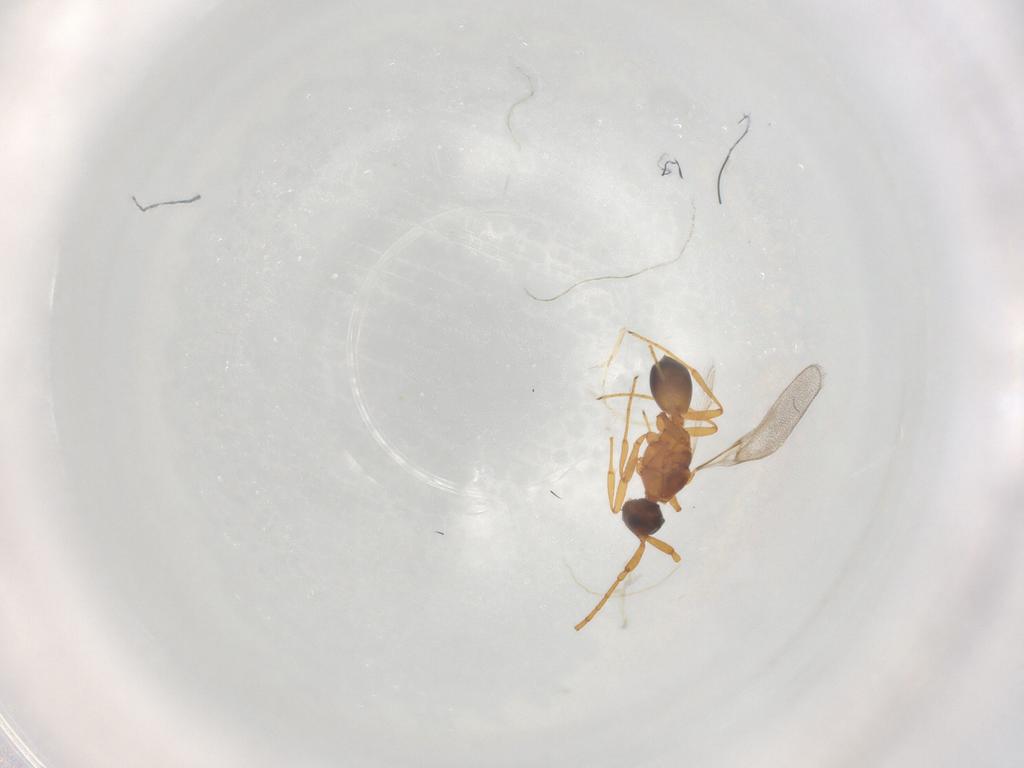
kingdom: Animalia
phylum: Arthropoda
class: Insecta
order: Hymenoptera
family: Diapriidae
